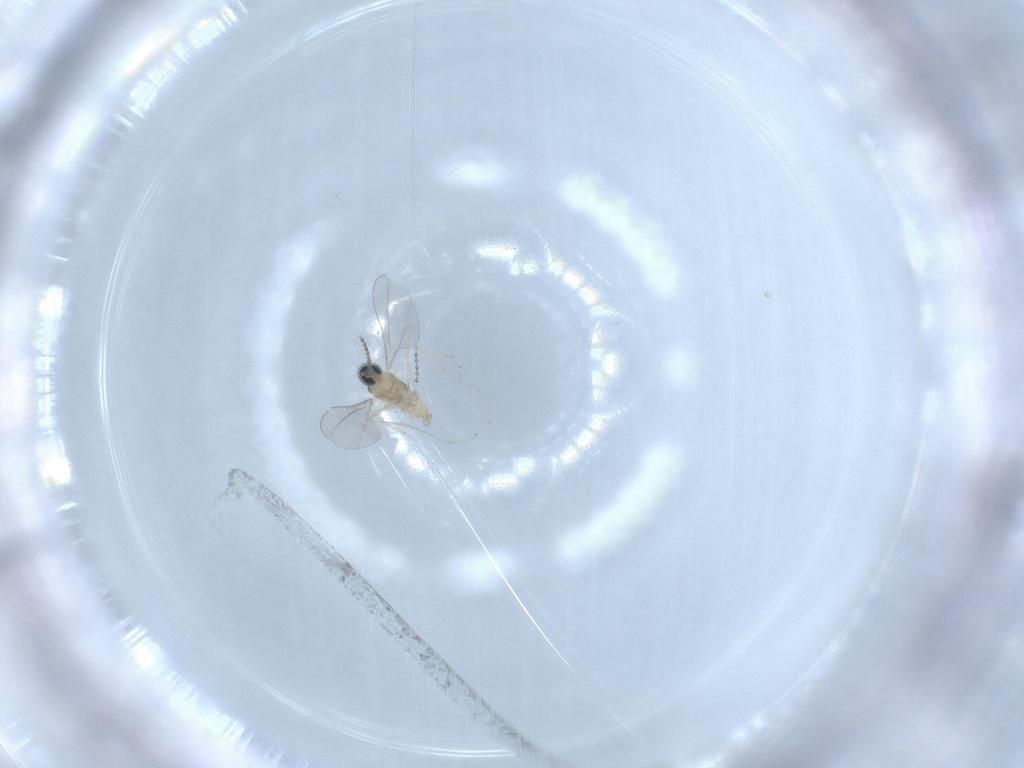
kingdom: Animalia
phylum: Arthropoda
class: Insecta
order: Diptera
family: Cecidomyiidae
